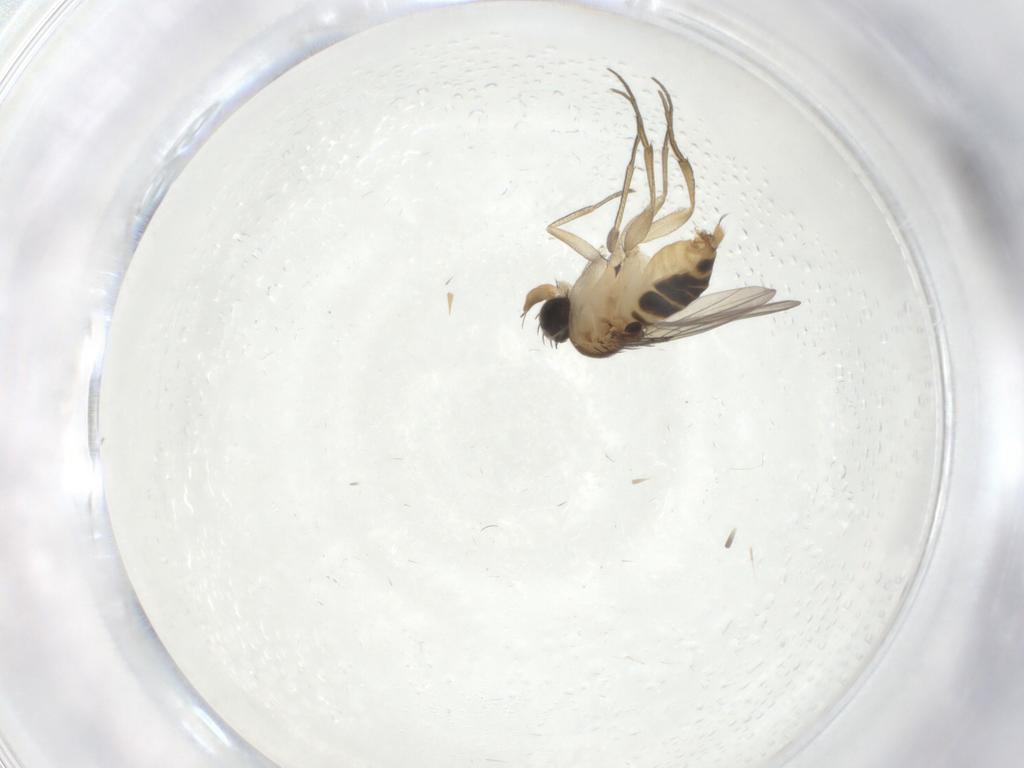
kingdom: Animalia
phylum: Arthropoda
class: Insecta
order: Diptera
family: Phoridae
